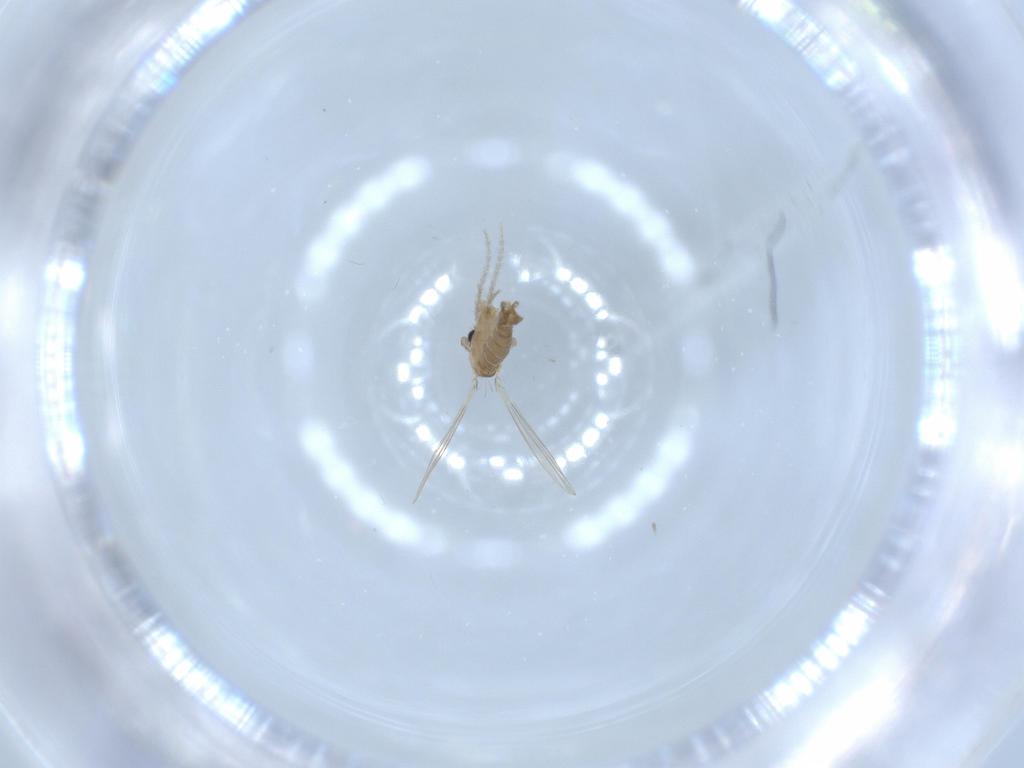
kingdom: Animalia
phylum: Arthropoda
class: Insecta
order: Diptera
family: Psychodidae
